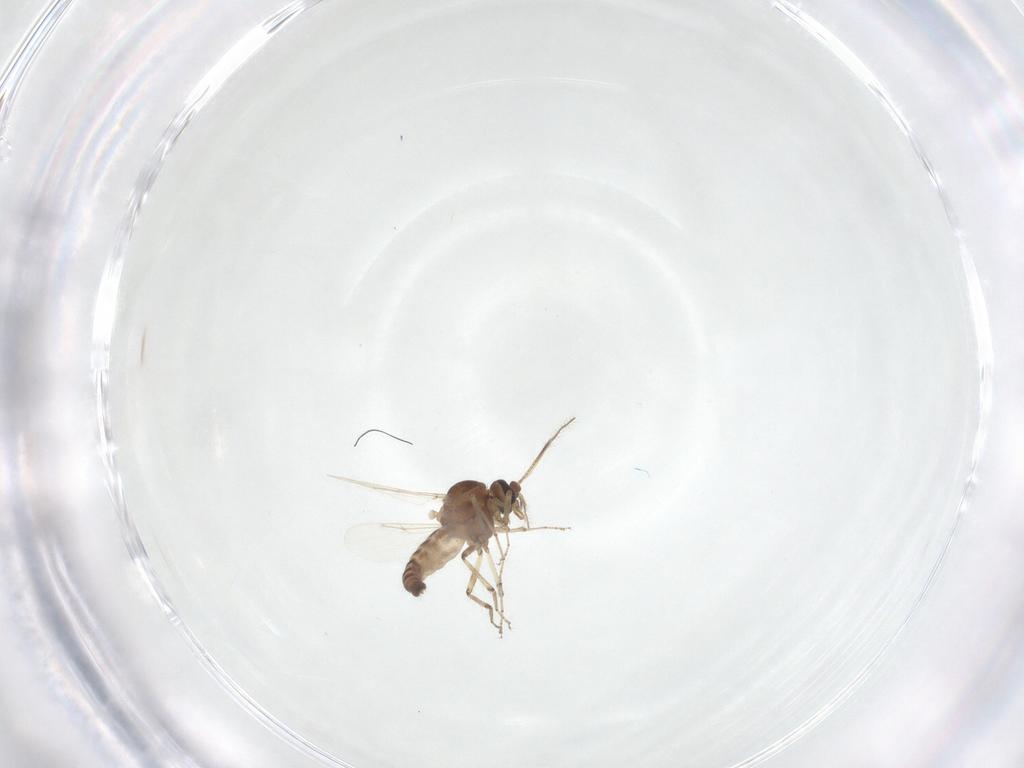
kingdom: Animalia
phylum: Arthropoda
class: Insecta
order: Diptera
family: Ceratopogonidae
